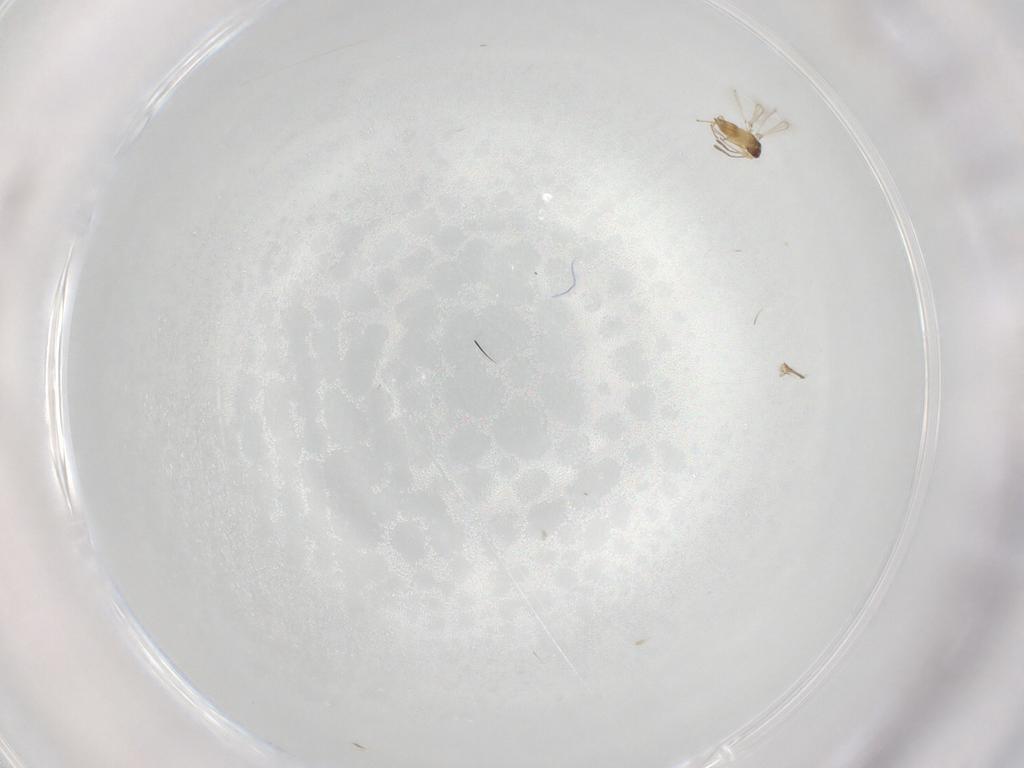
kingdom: Animalia
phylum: Arthropoda
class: Insecta
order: Hymenoptera
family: Mymaridae
